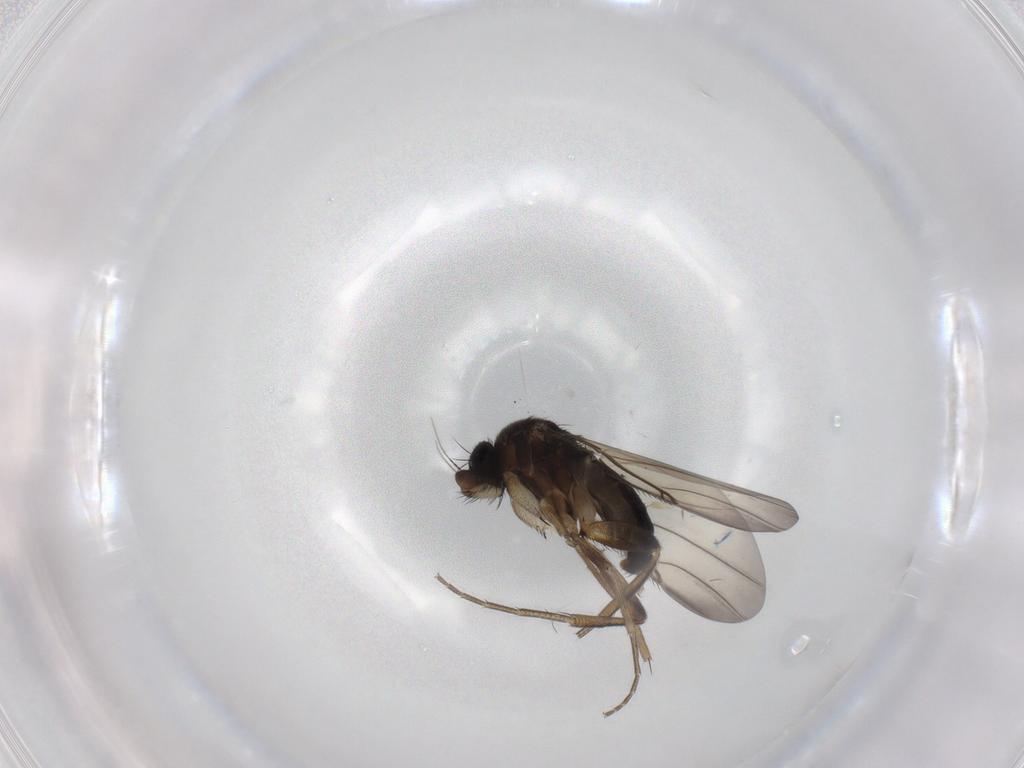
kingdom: Animalia
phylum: Arthropoda
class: Insecta
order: Diptera
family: Phoridae
